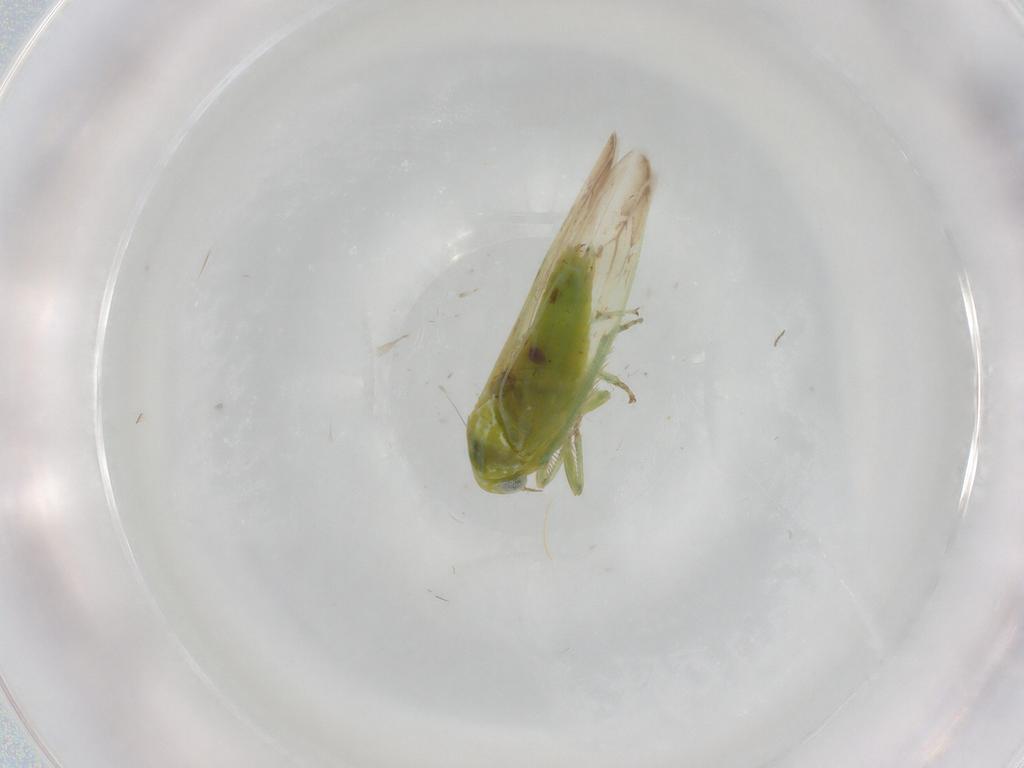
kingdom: Animalia
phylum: Arthropoda
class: Insecta
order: Hemiptera
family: Cicadellidae
